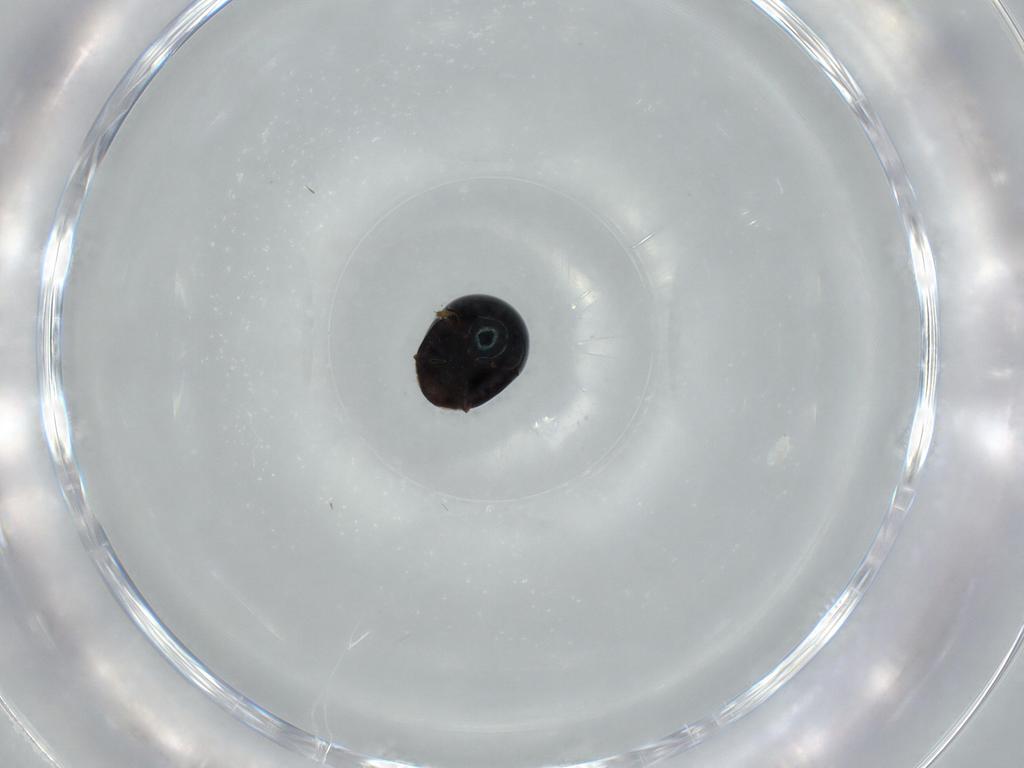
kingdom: Animalia
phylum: Arthropoda
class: Insecta
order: Coleoptera
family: Cybocephalidae
